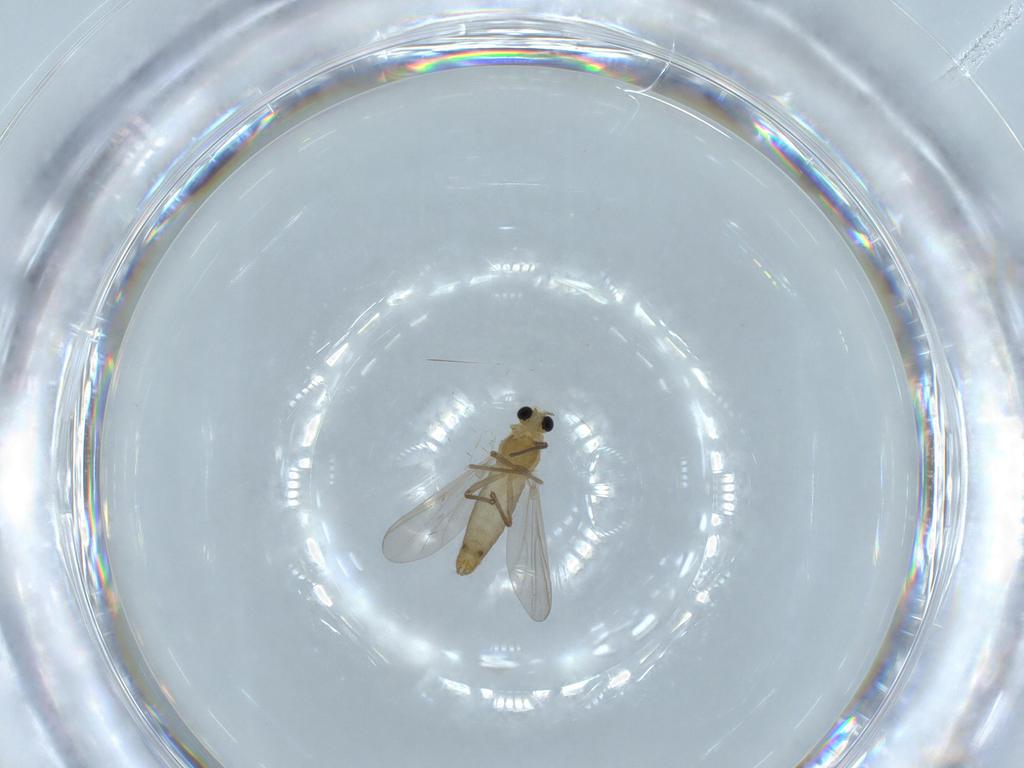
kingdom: Animalia
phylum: Arthropoda
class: Insecta
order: Diptera
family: Chironomidae
